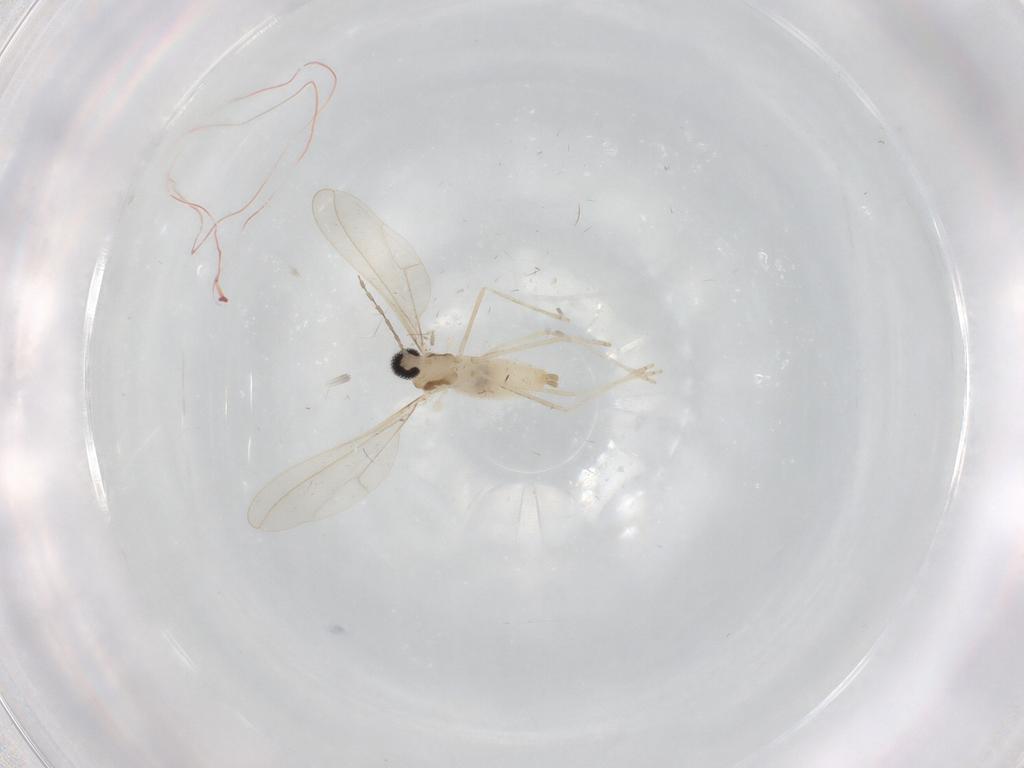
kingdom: Animalia
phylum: Arthropoda
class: Insecta
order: Diptera
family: Cecidomyiidae
